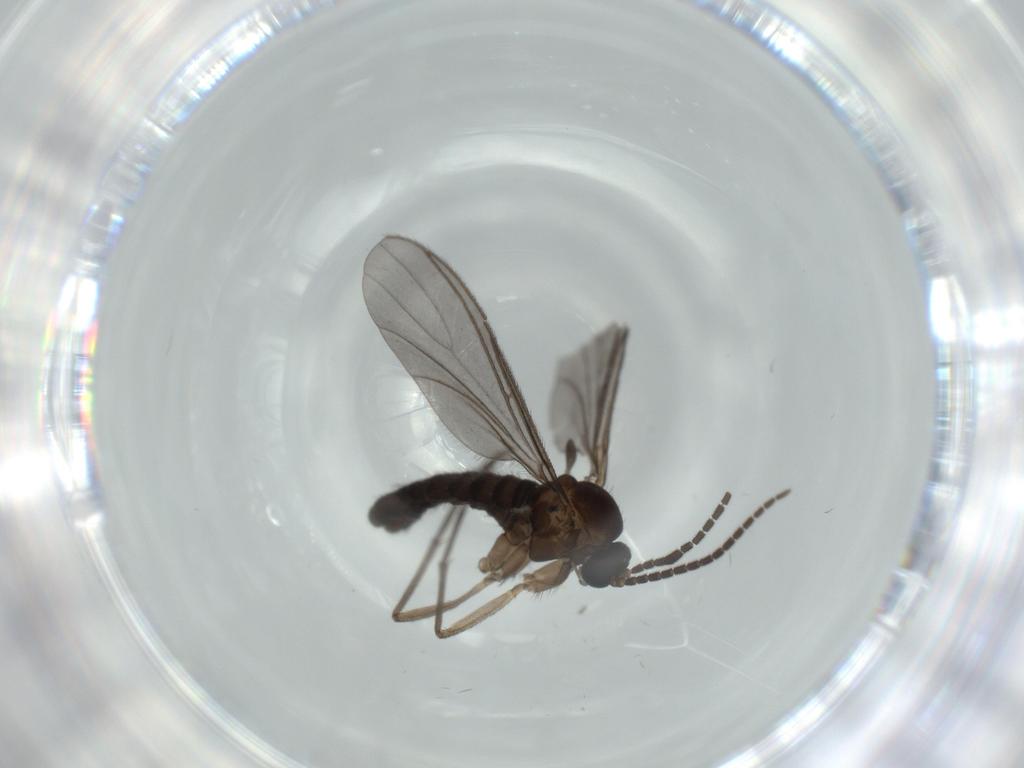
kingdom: Animalia
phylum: Arthropoda
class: Insecta
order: Diptera
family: Sciaridae
